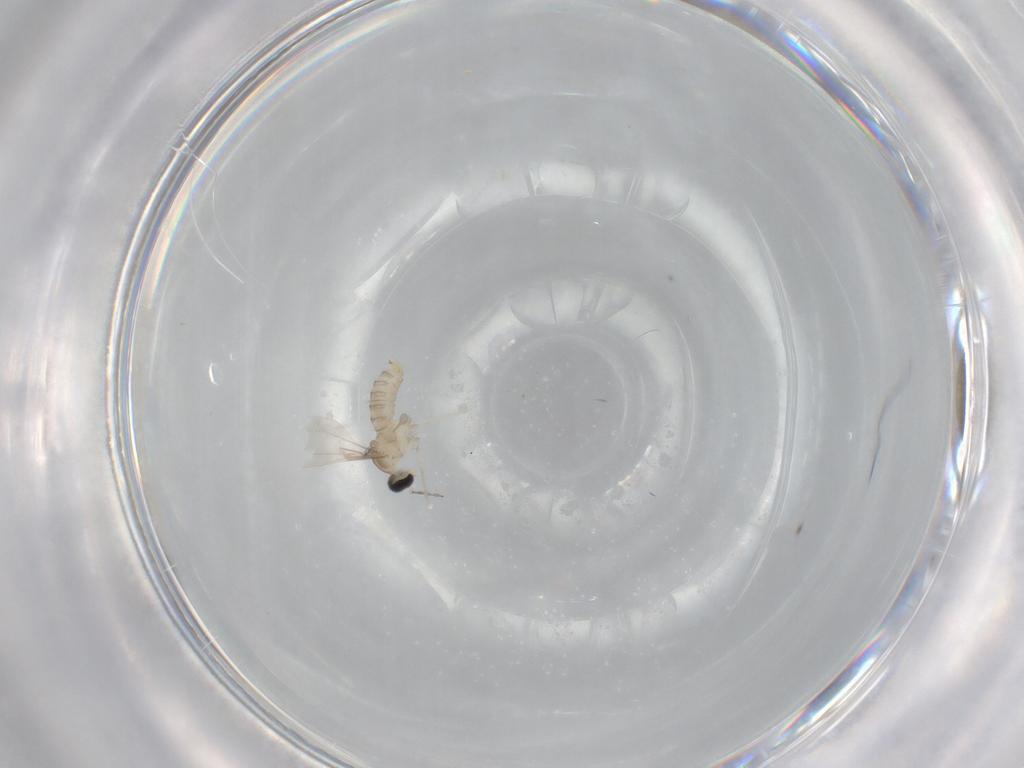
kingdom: Animalia
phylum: Arthropoda
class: Insecta
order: Diptera
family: Cecidomyiidae
